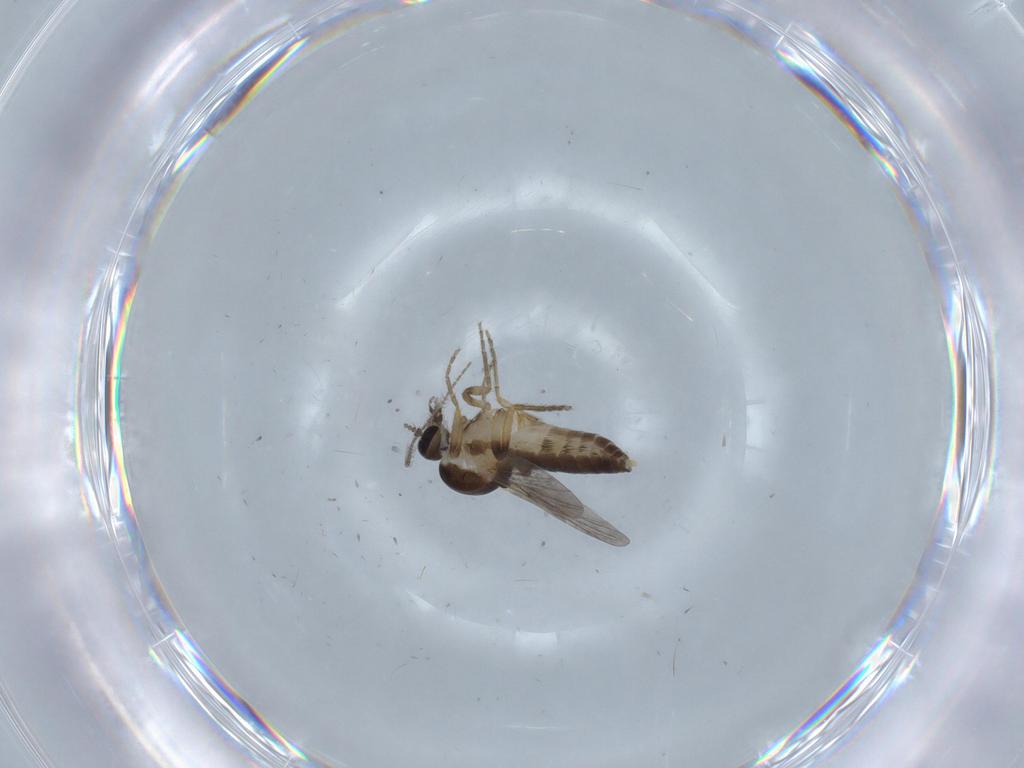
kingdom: Animalia
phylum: Arthropoda
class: Insecta
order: Diptera
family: Ceratopogonidae
